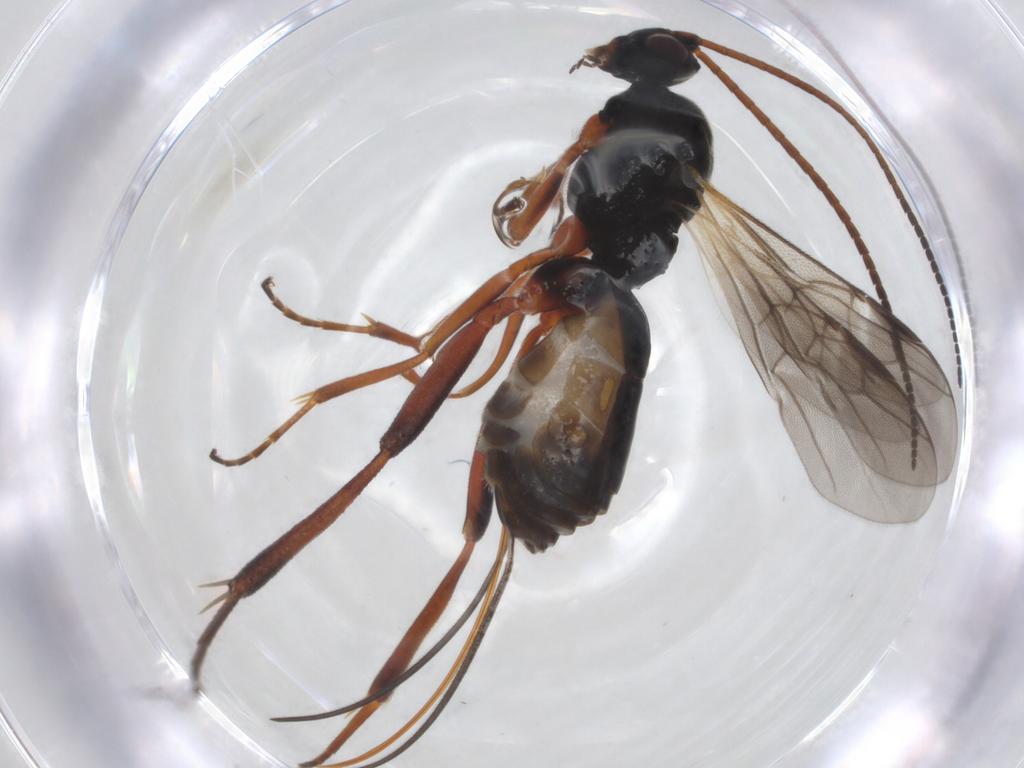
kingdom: Animalia
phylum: Arthropoda
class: Insecta
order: Hymenoptera
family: Braconidae
